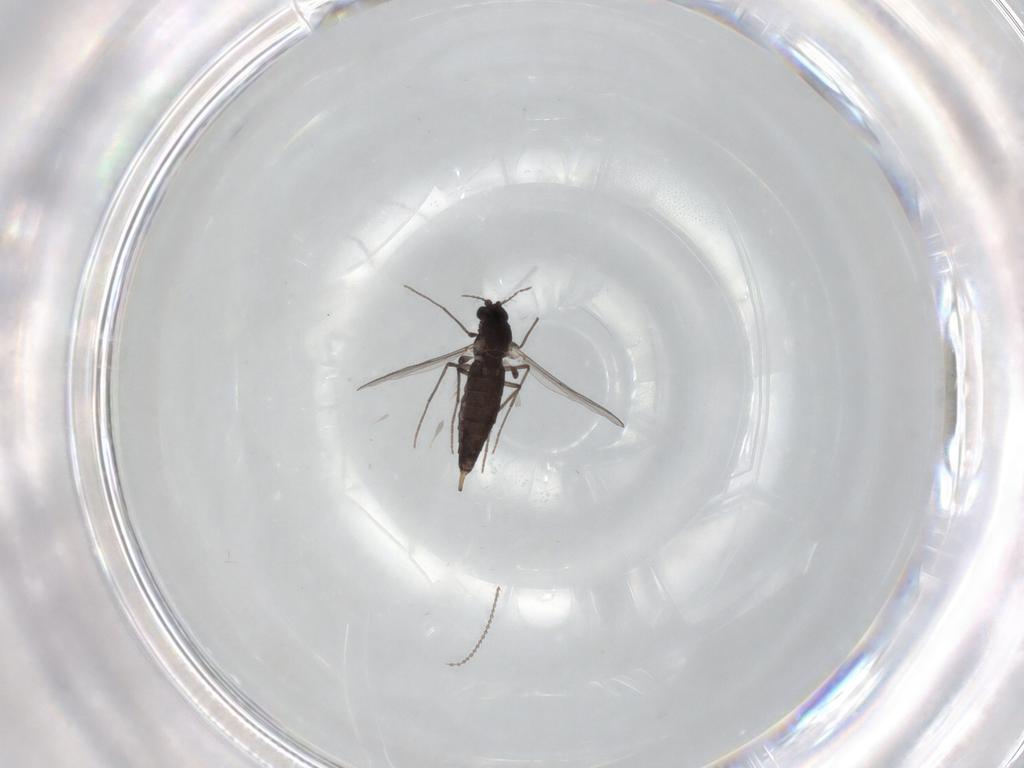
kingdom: Animalia
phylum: Arthropoda
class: Insecta
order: Diptera
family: Chironomidae
